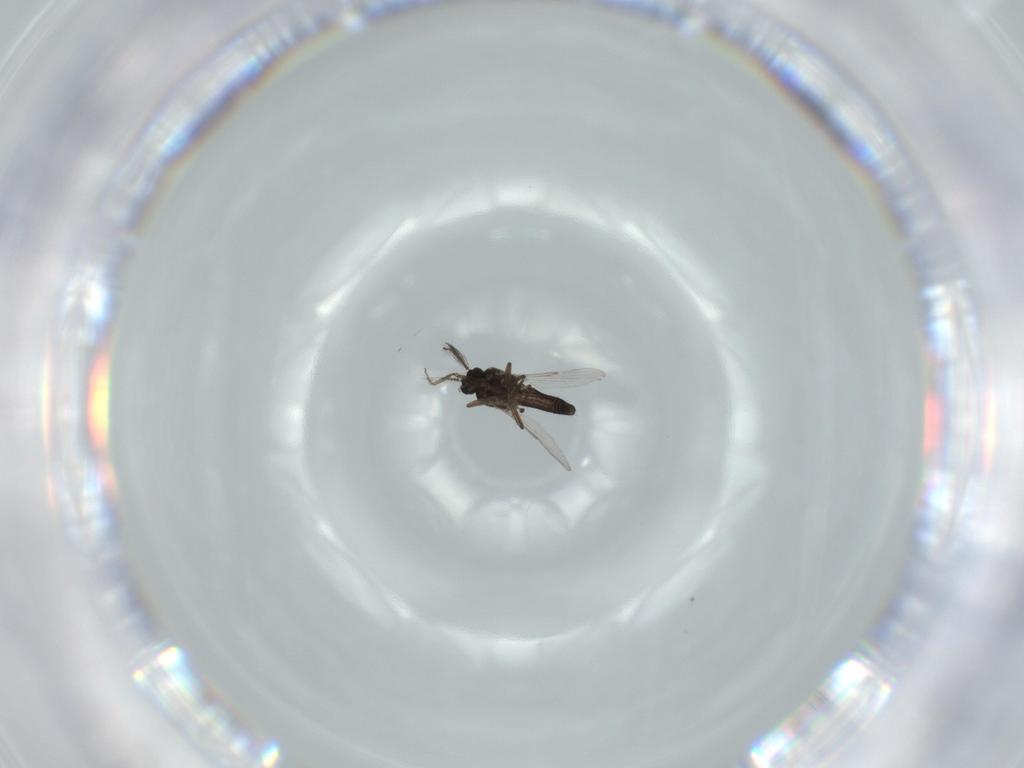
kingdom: Animalia
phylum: Arthropoda
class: Insecta
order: Diptera
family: Ceratopogonidae
